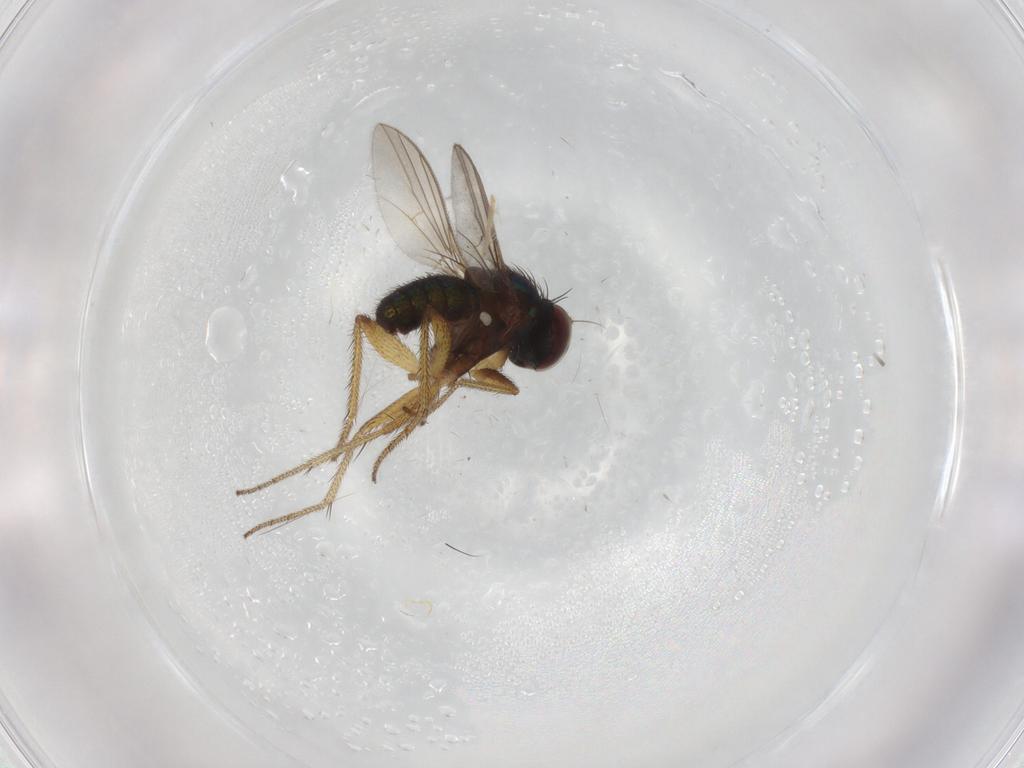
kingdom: Animalia
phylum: Arthropoda
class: Insecta
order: Diptera
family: Dolichopodidae
